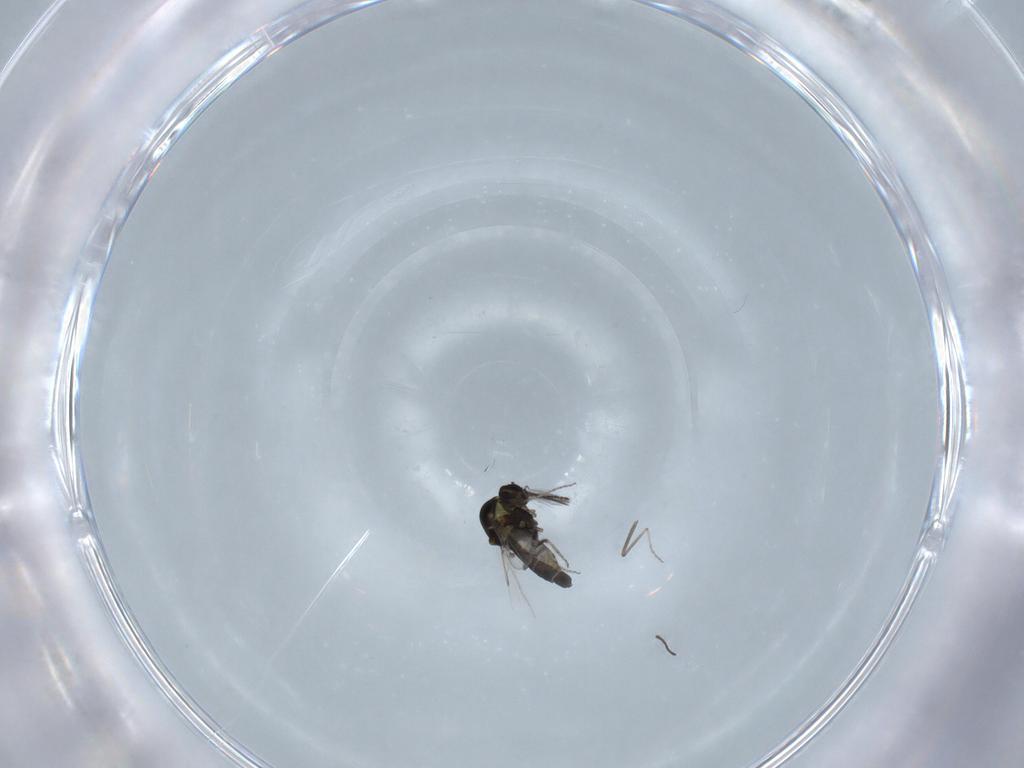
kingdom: Animalia
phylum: Arthropoda
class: Insecta
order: Diptera
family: Ceratopogonidae
